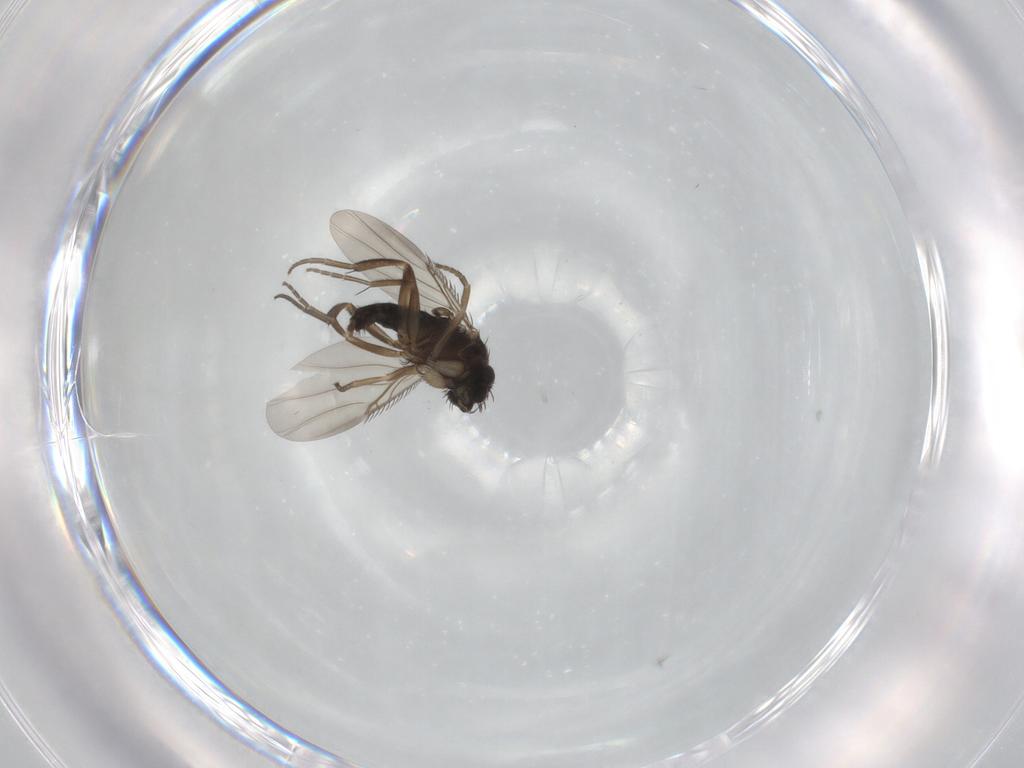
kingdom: Animalia
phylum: Arthropoda
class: Insecta
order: Diptera
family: Phoridae
